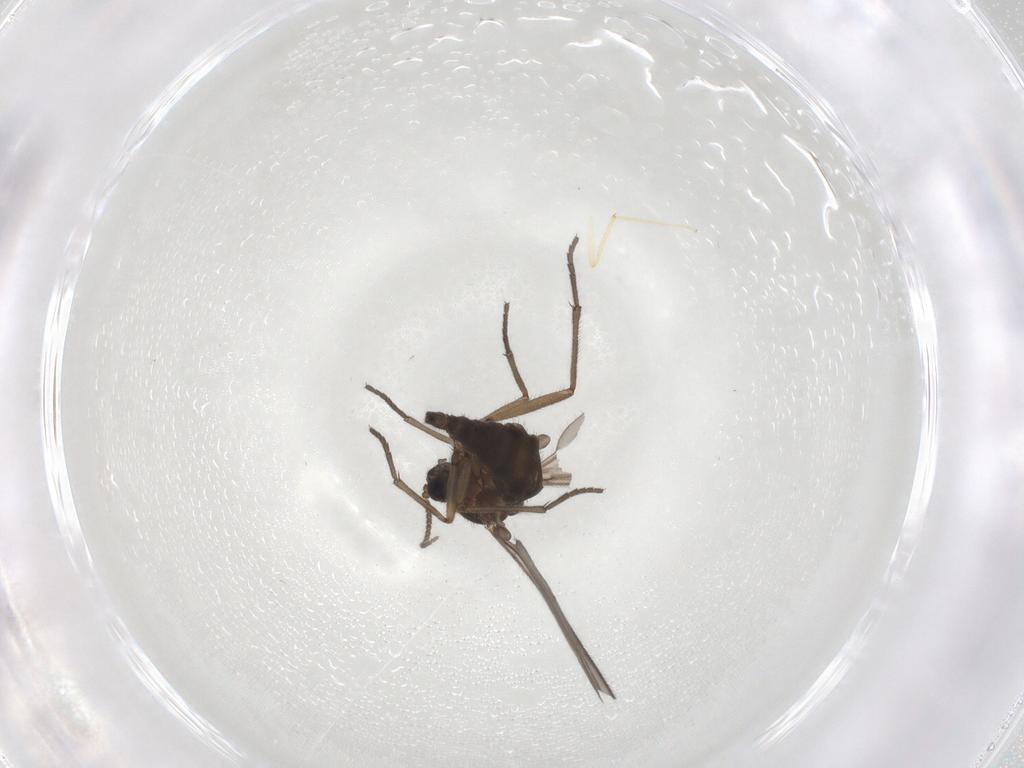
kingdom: Animalia
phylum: Arthropoda
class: Insecta
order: Diptera
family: Sciaridae
